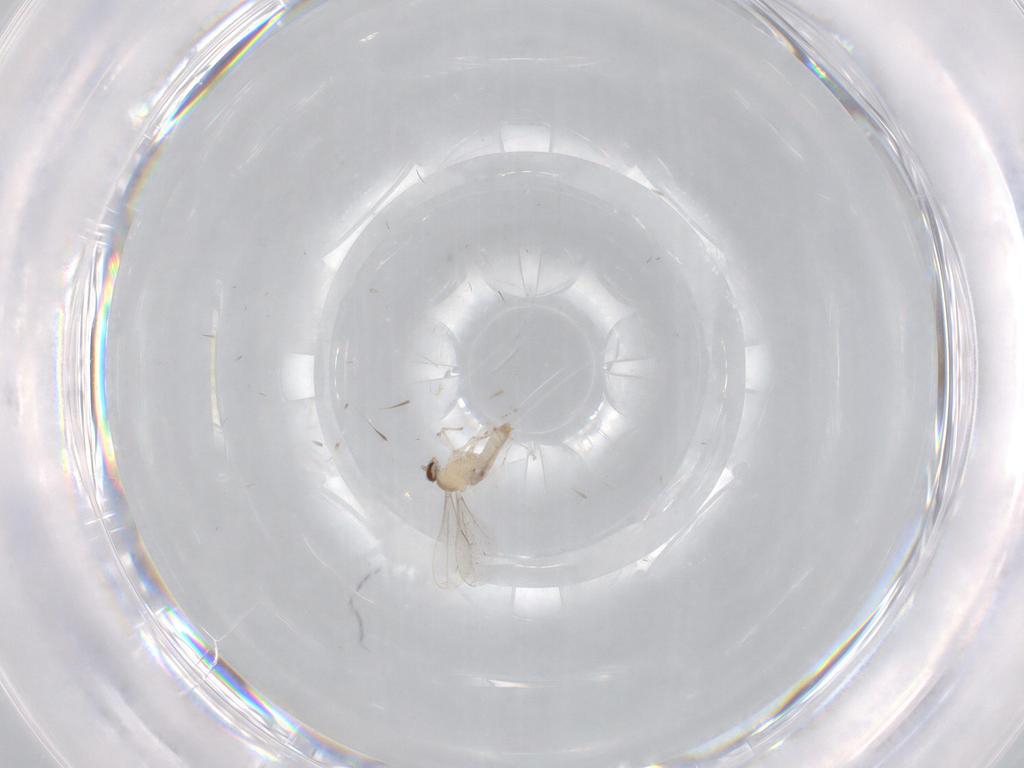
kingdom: Animalia
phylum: Arthropoda
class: Insecta
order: Diptera
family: Cecidomyiidae
